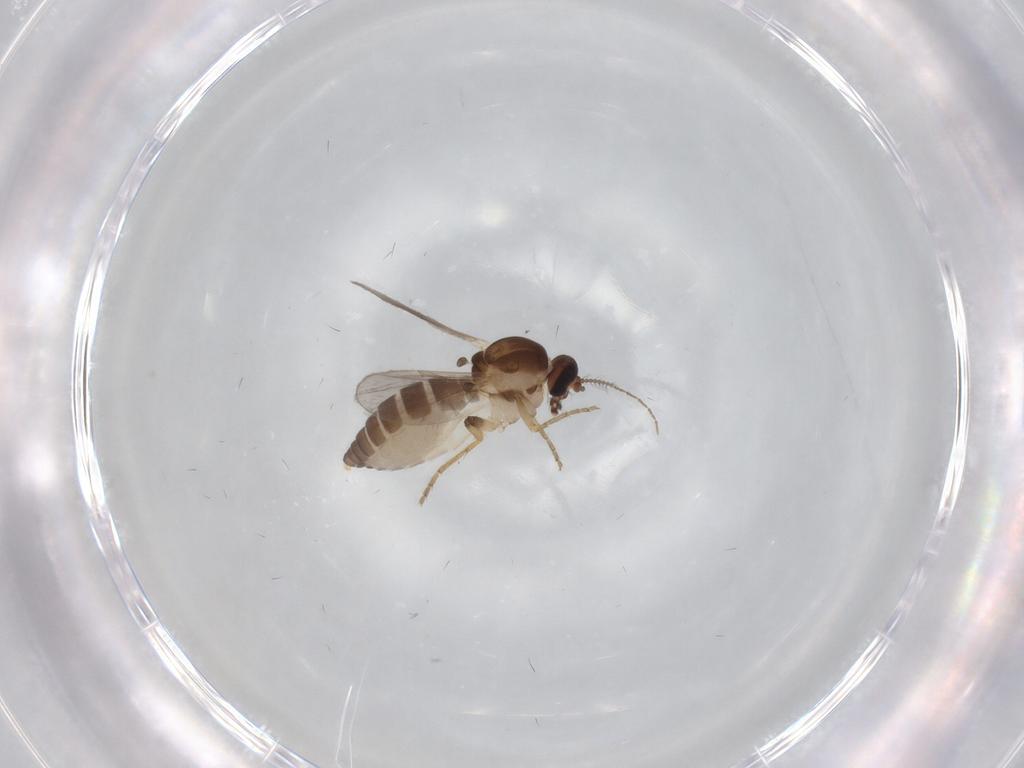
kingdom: Animalia
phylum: Arthropoda
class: Insecta
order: Diptera
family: Ceratopogonidae
